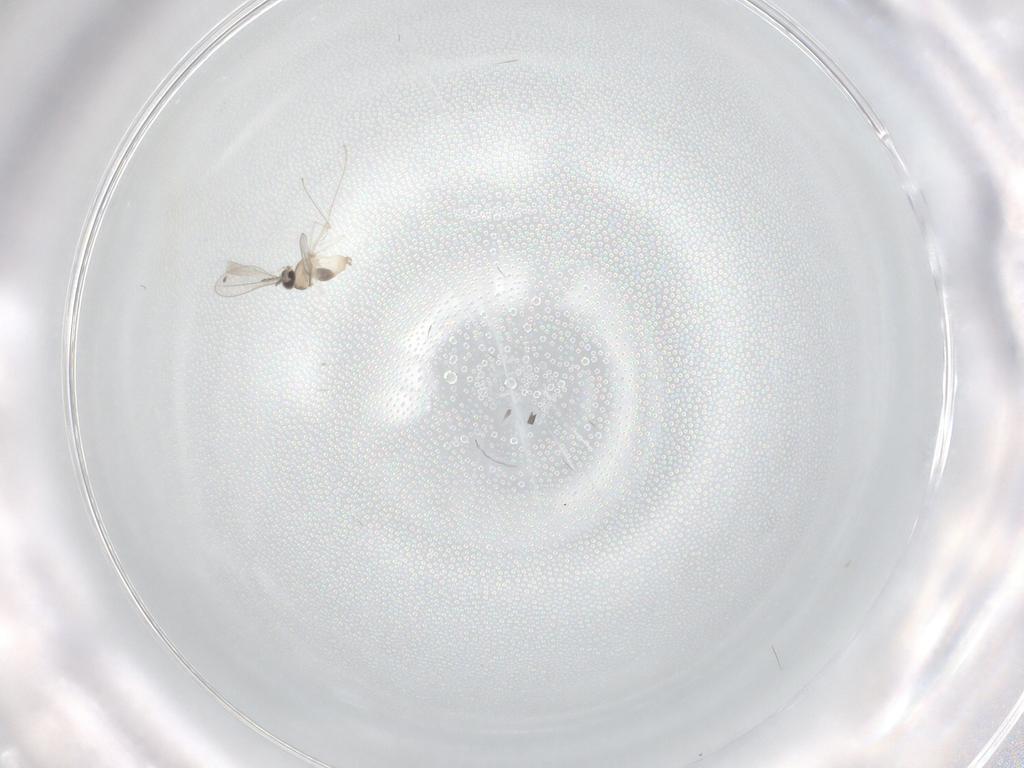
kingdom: Animalia
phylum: Arthropoda
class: Insecta
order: Diptera
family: Cecidomyiidae
